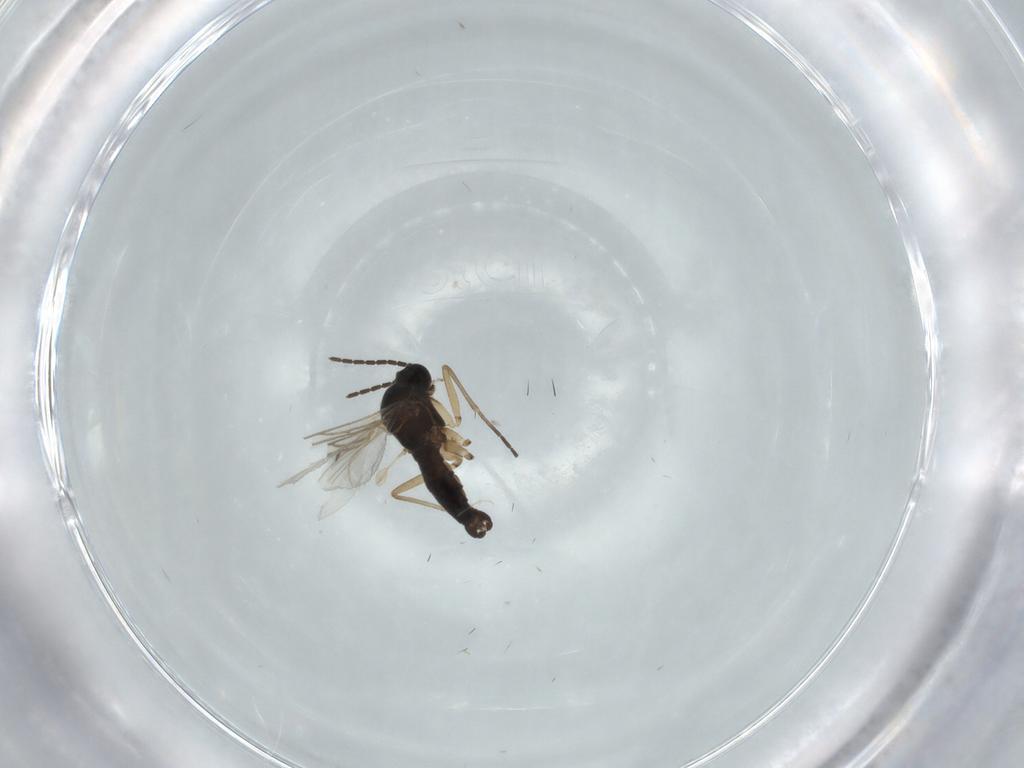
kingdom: Animalia
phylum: Arthropoda
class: Insecta
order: Diptera
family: Sciaridae
